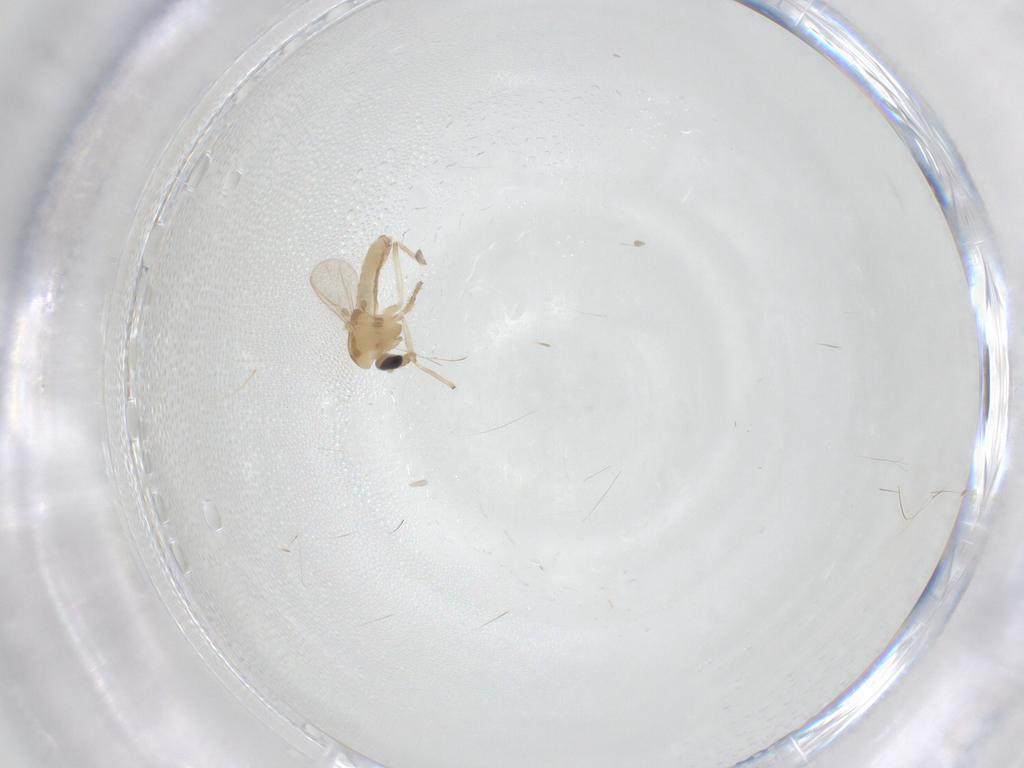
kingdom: Animalia
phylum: Arthropoda
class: Insecta
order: Diptera
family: Chironomidae
